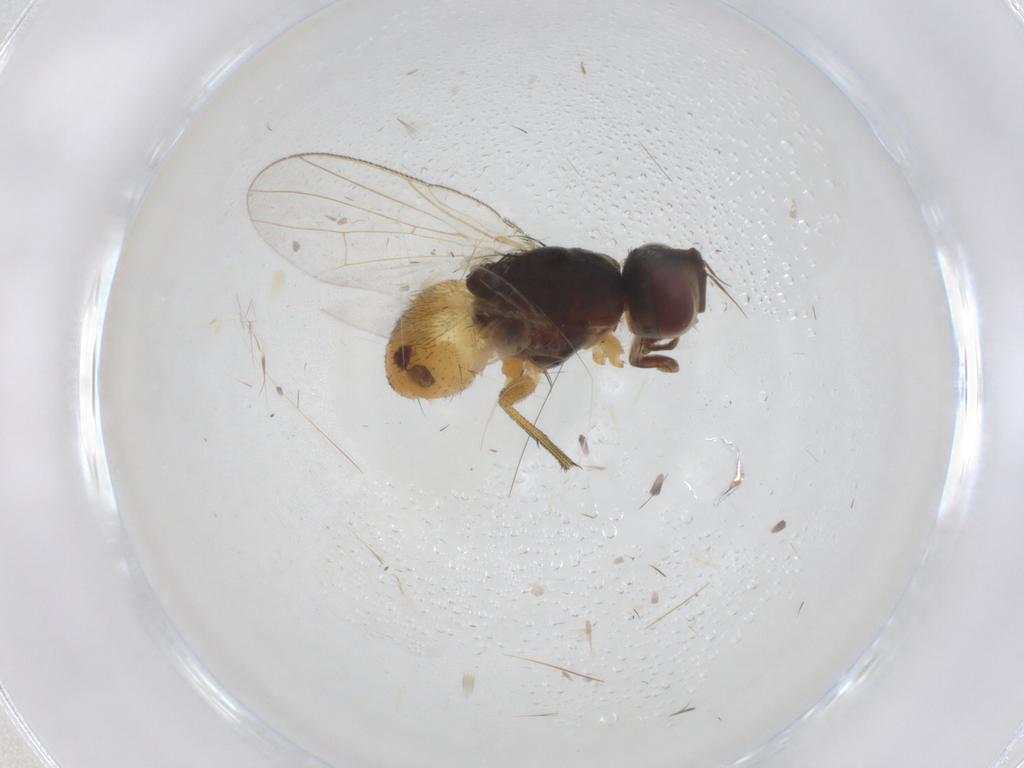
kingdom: Animalia
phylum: Arthropoda
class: Insecta
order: Diptera
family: Muscidae
